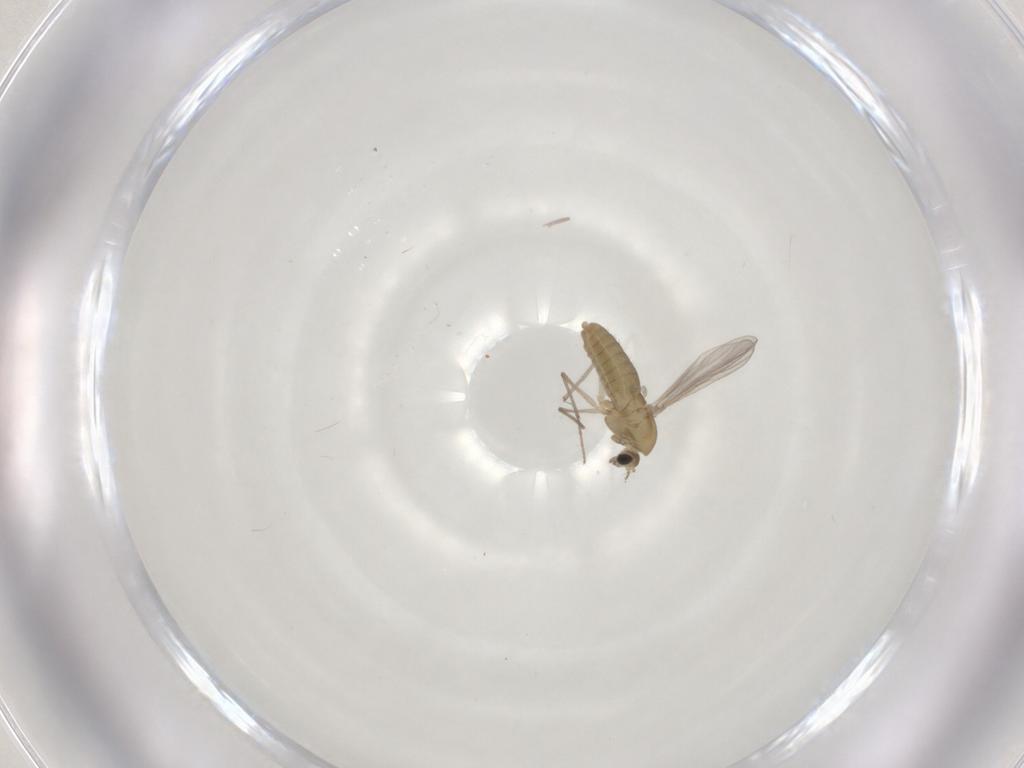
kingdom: Animalia
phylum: Arthropoda
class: Insecta
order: Diptera
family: Chironomidae
